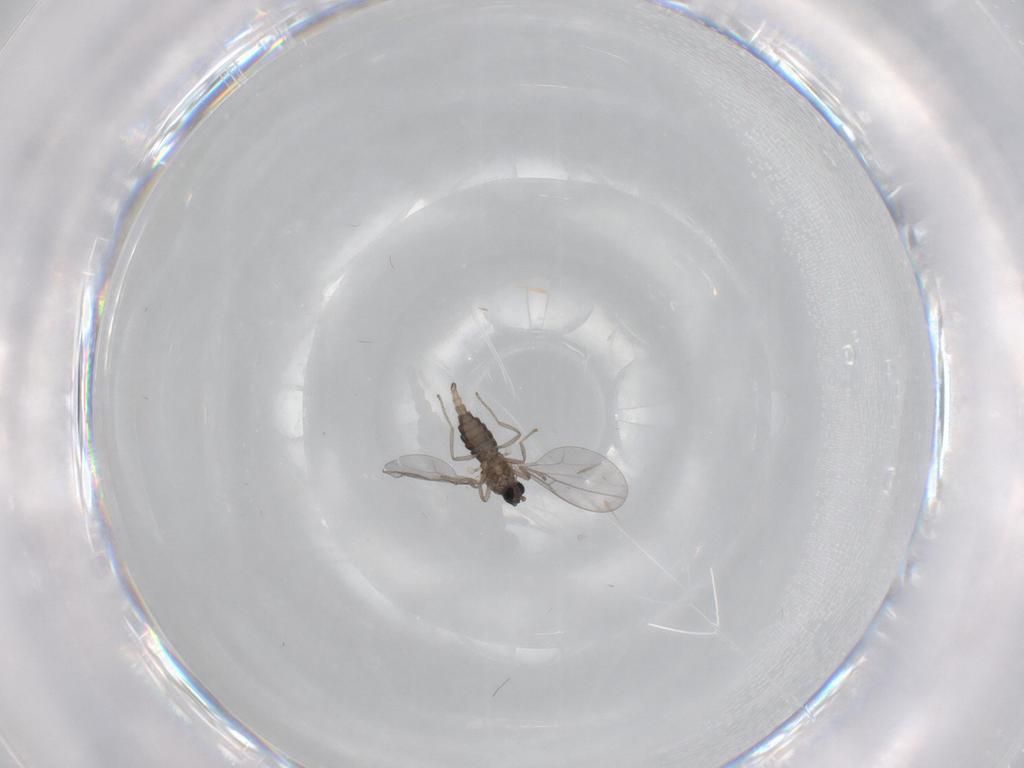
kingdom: Animalia
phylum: Arthropoda
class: Insecta
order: Diptera
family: Cecidomyiidae
